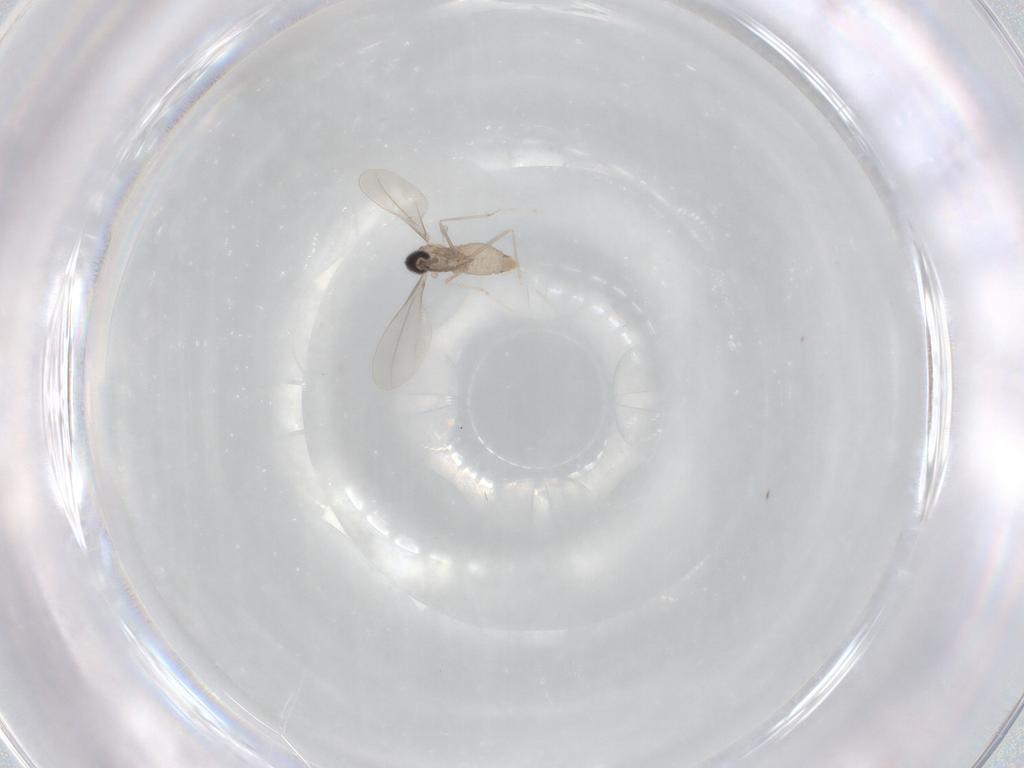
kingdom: Animalia
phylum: Arthropoda
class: Insecta
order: Diptera
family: Cecidomyiidae
